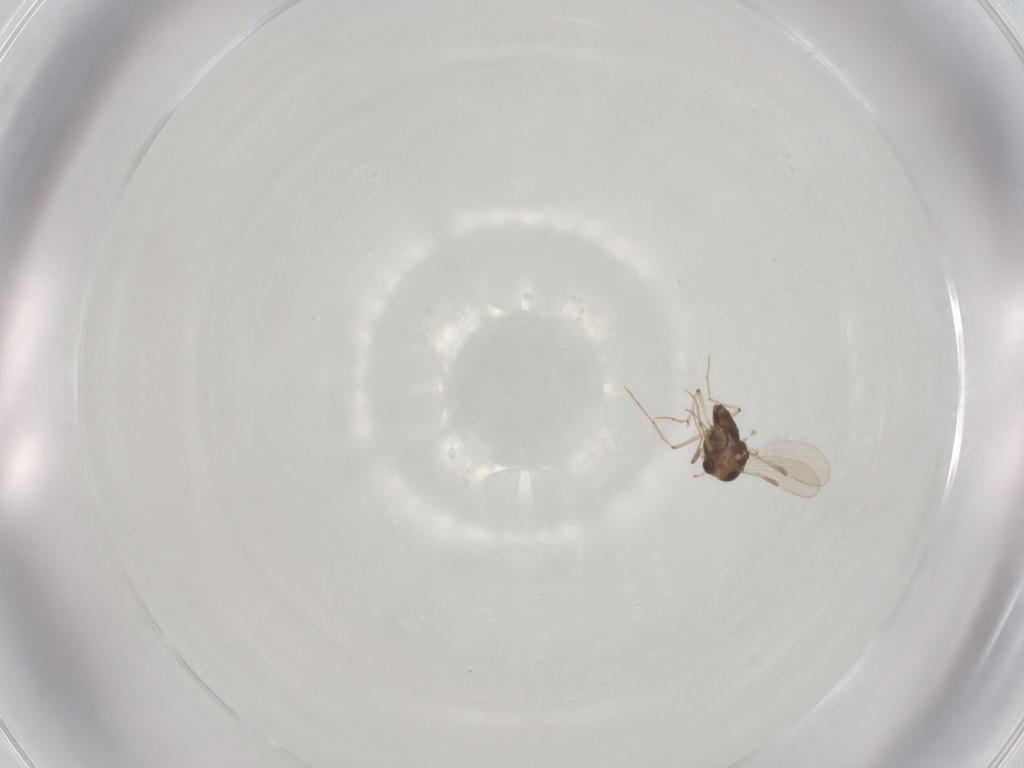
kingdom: Animalia
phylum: Arthropoda
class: Insecta
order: Diptera
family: Chironomidae
